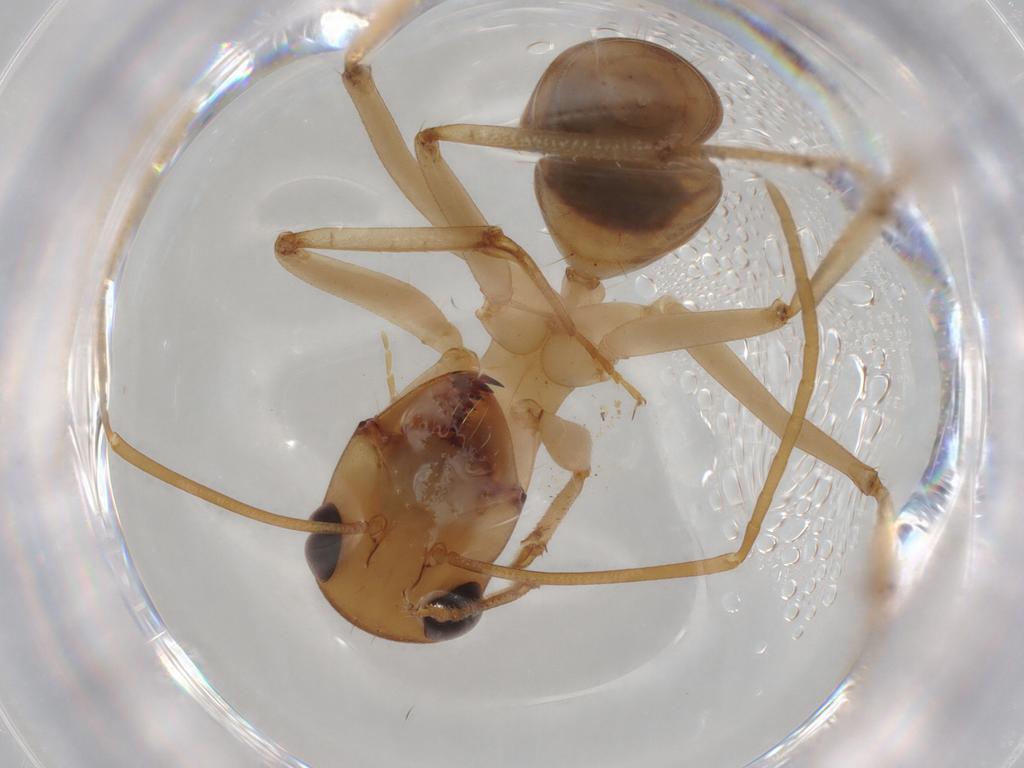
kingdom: Animalia
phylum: Arthropoda
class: Insecta
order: Hymenoptera
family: Formicidae
